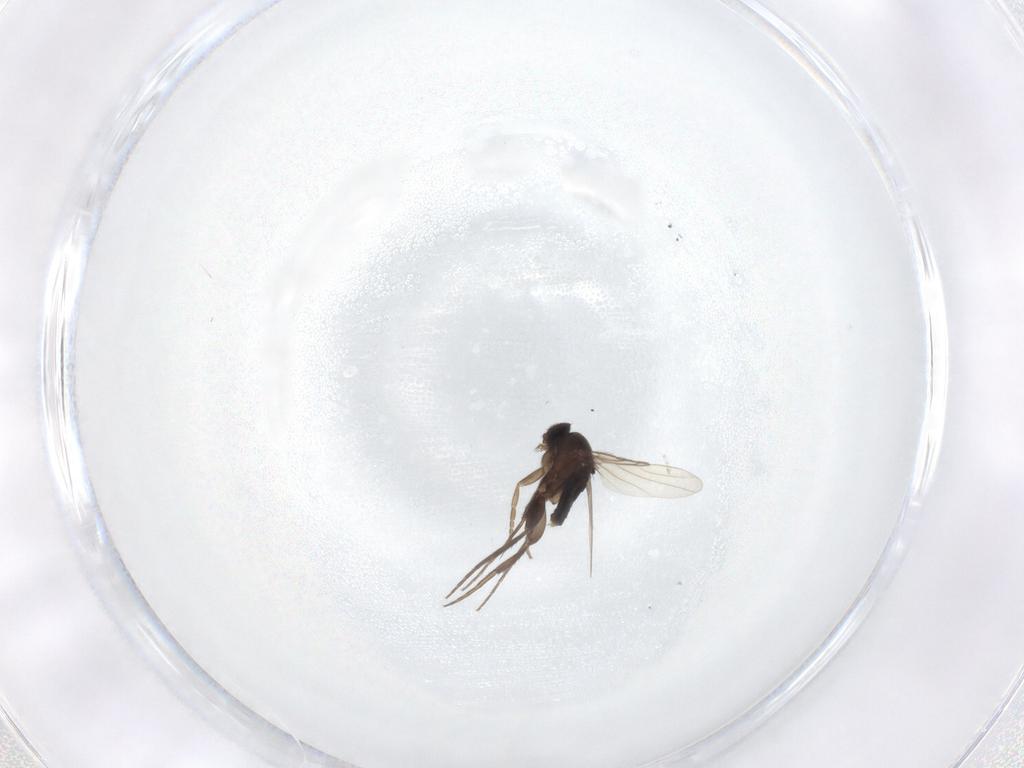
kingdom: Animalia
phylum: Arthropoda
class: Insecta
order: Diptera
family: Phoridae
